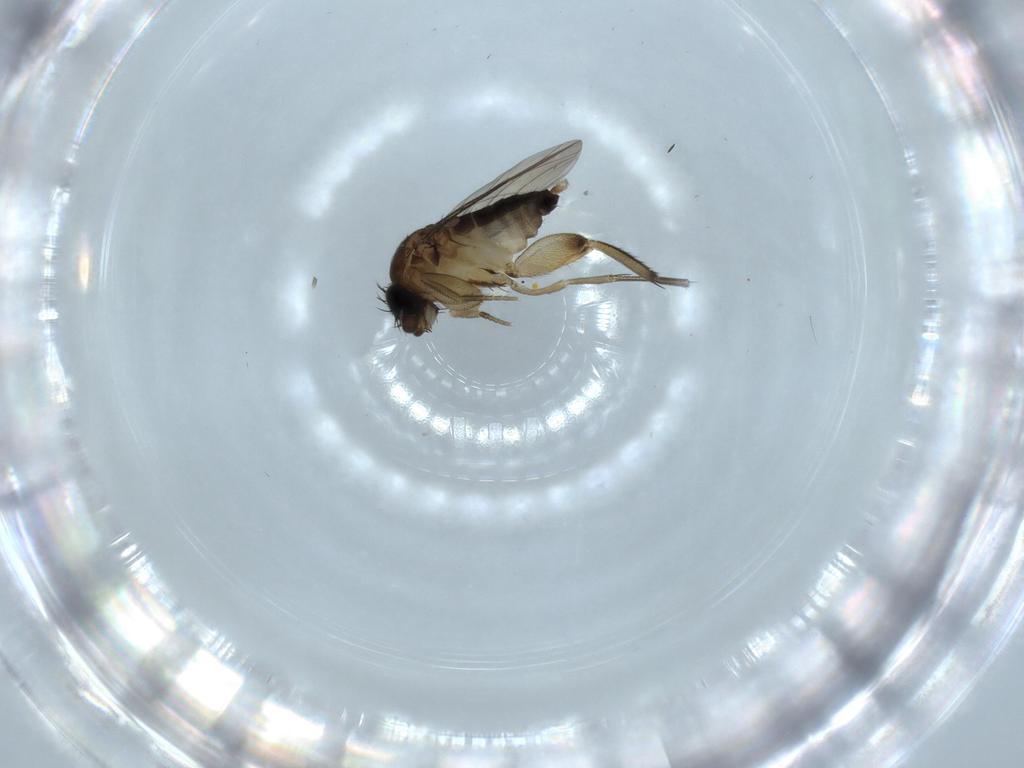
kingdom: Animalia
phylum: Arthropoda
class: Insecta
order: Diptera
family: Phoridae
